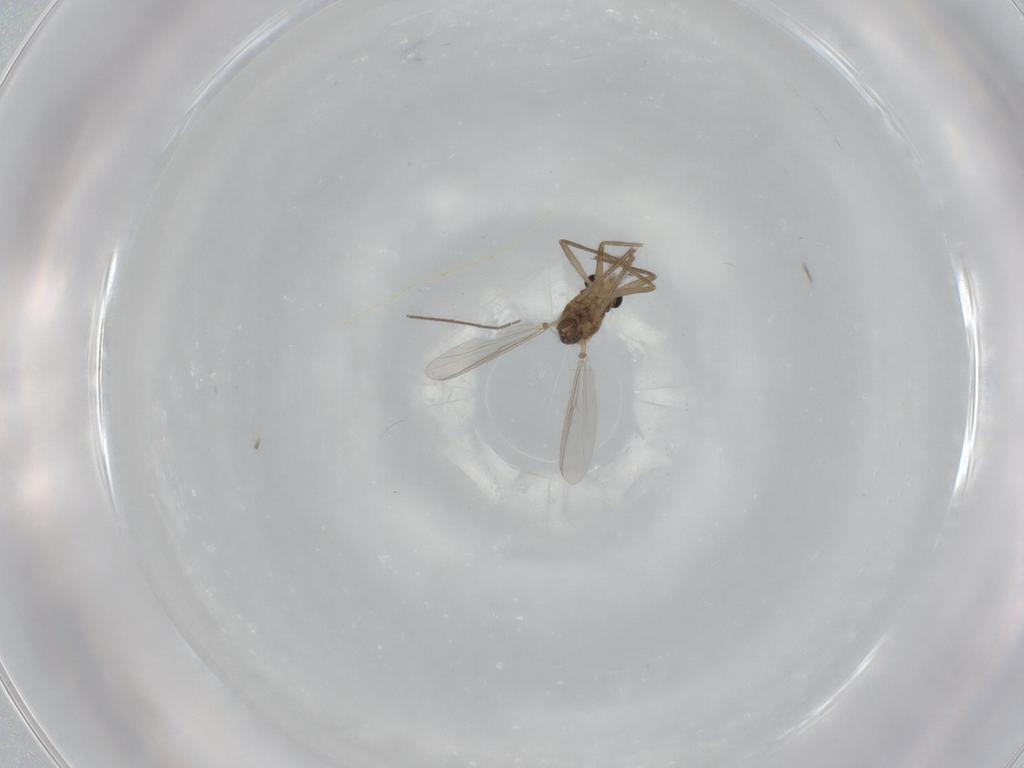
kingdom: Animalia
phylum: Arthropoda
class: Insecta
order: Diptera
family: Chironomidae
